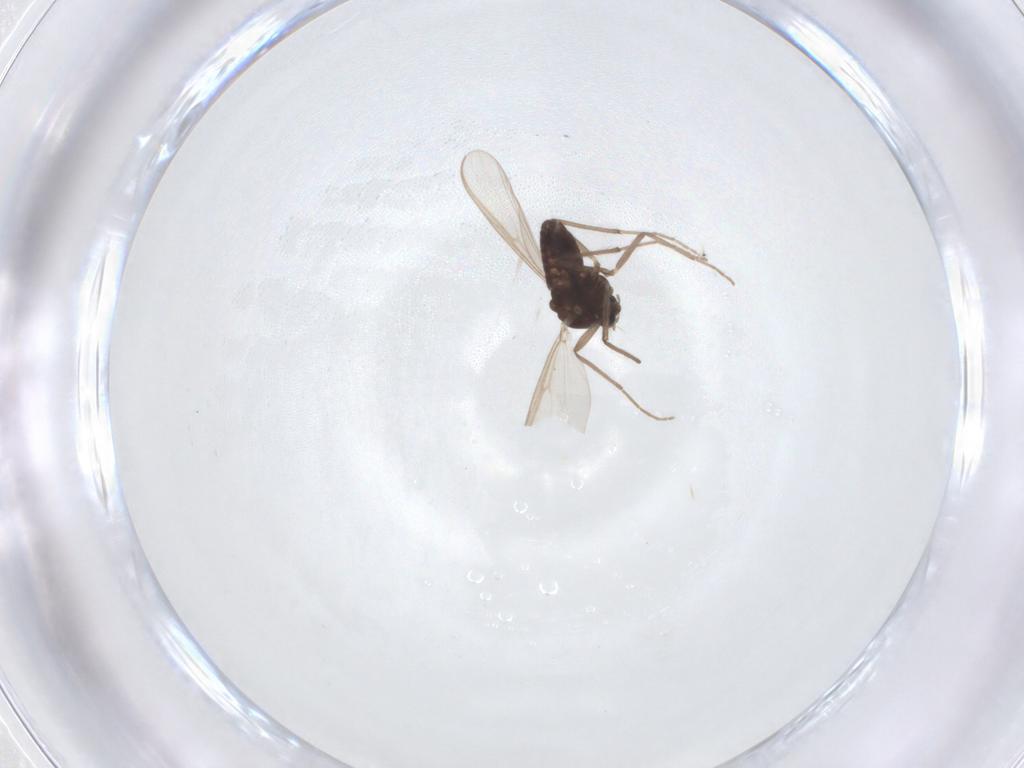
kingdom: Animalia
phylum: Arthropoda
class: Insecta
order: Diptera
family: Chironomidae
